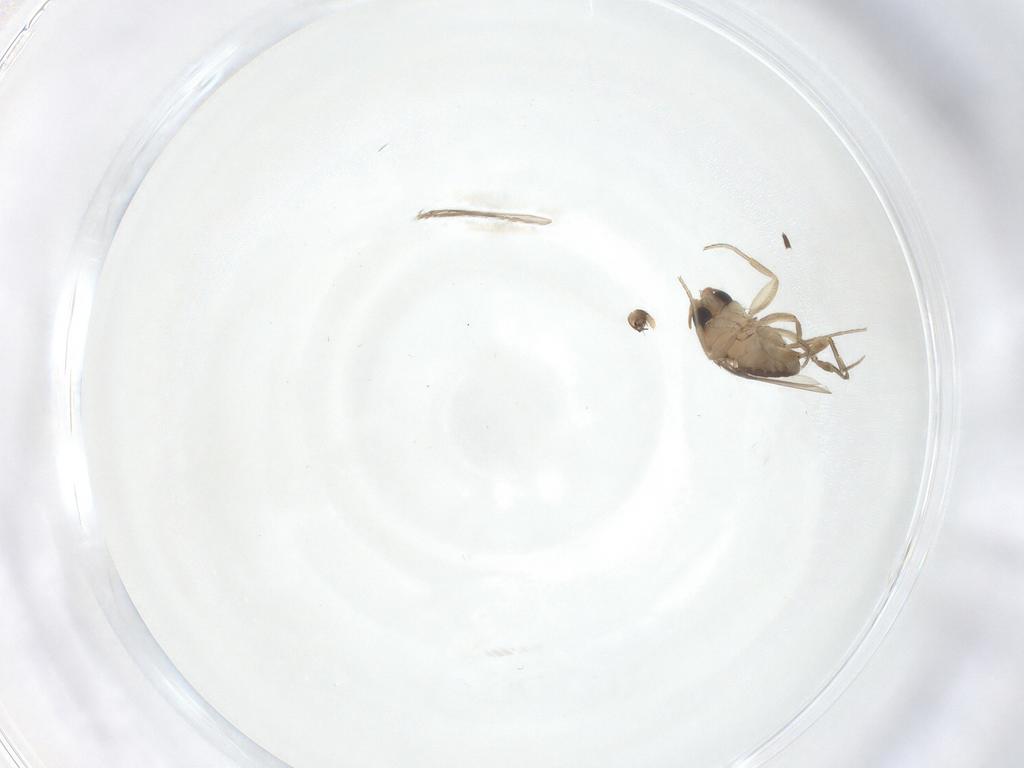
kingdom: Animalia
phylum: Arthropoda
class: Insecta
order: Diptera
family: Phoridae
